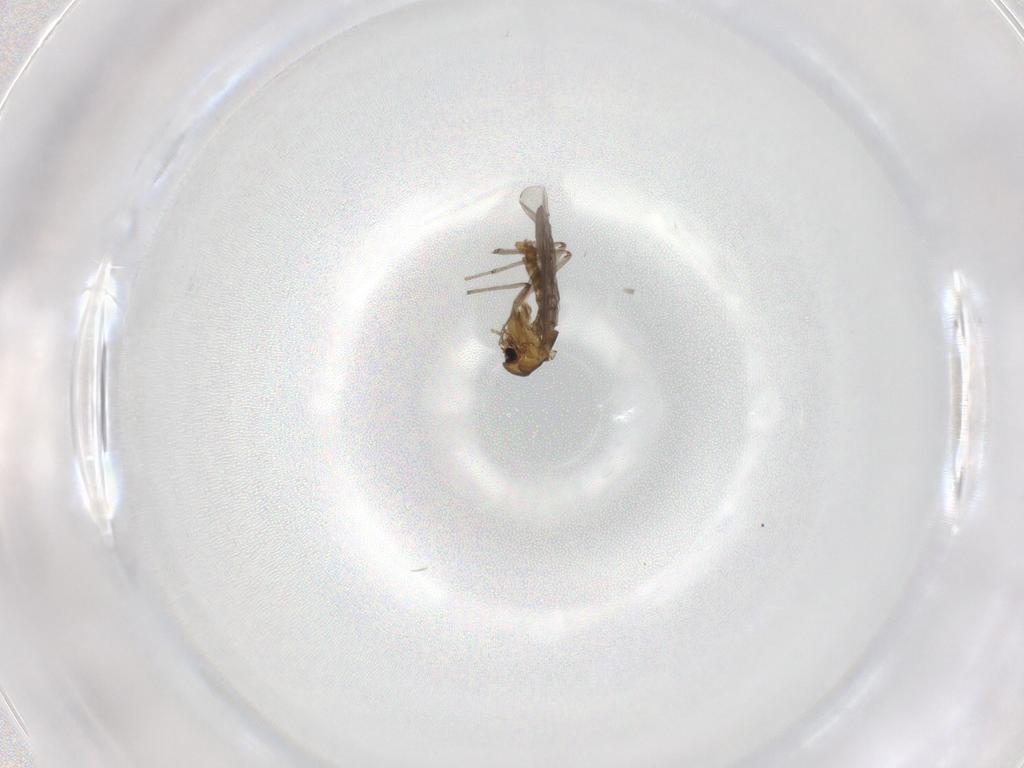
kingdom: Animalia
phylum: Arthropoda
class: Insecta
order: Diptera
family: Chironomidae
